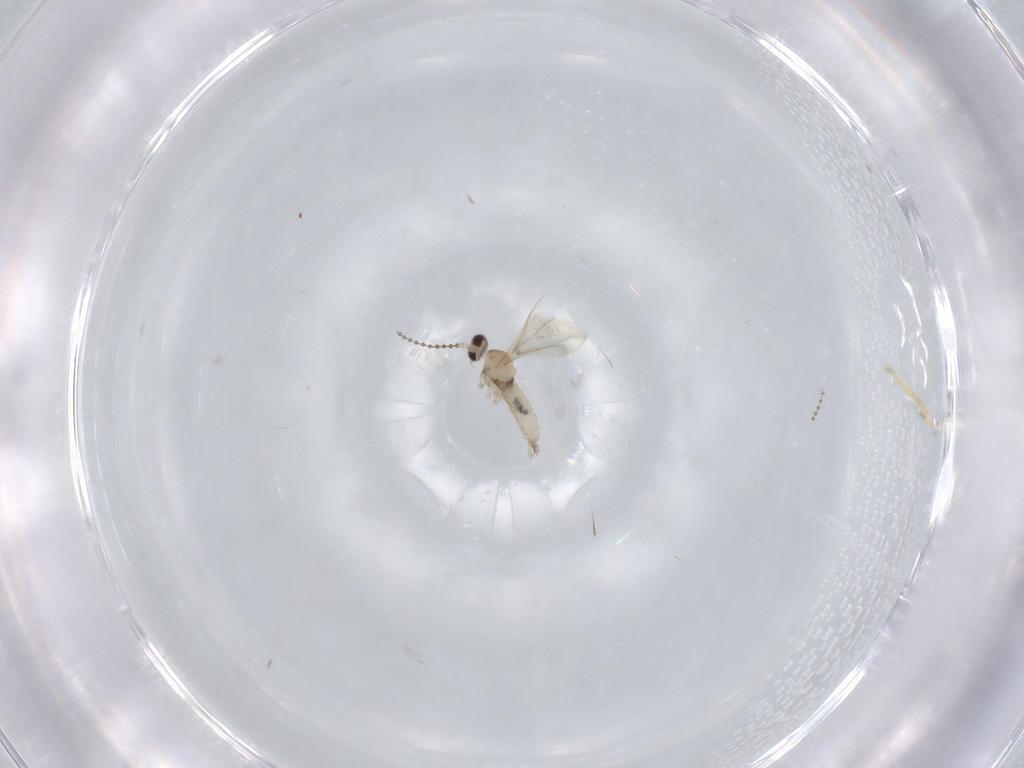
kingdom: Animalia
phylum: Arthropoda
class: Insecta
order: Diptera
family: Cecidomyiidae
